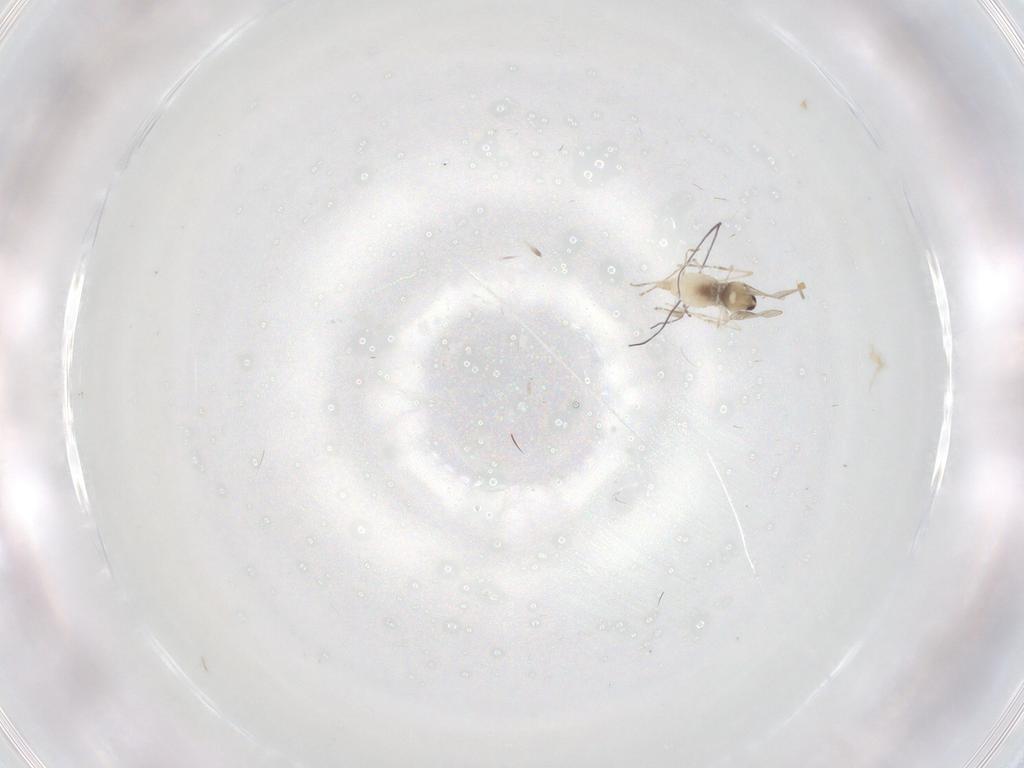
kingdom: Animalia
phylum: Arthropoda
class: Insecta
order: Diptera
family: Cecidomyiidae
